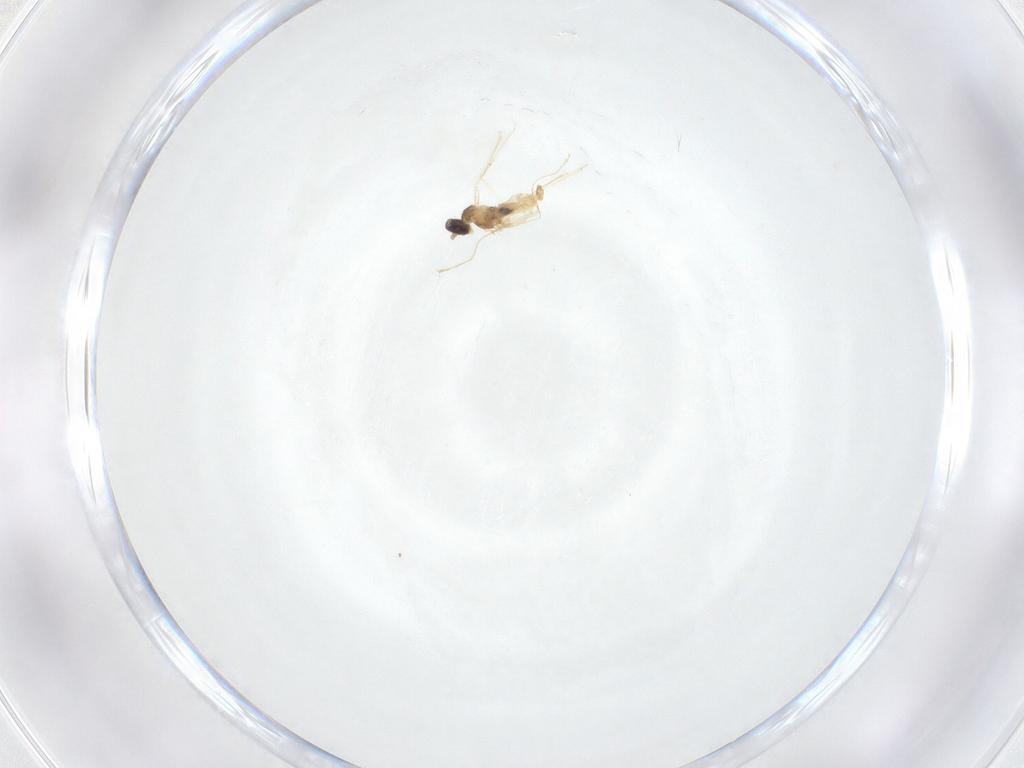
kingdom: Animalia
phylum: Arthropoda
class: Insecta
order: Diptera
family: Cecidomyiidae
